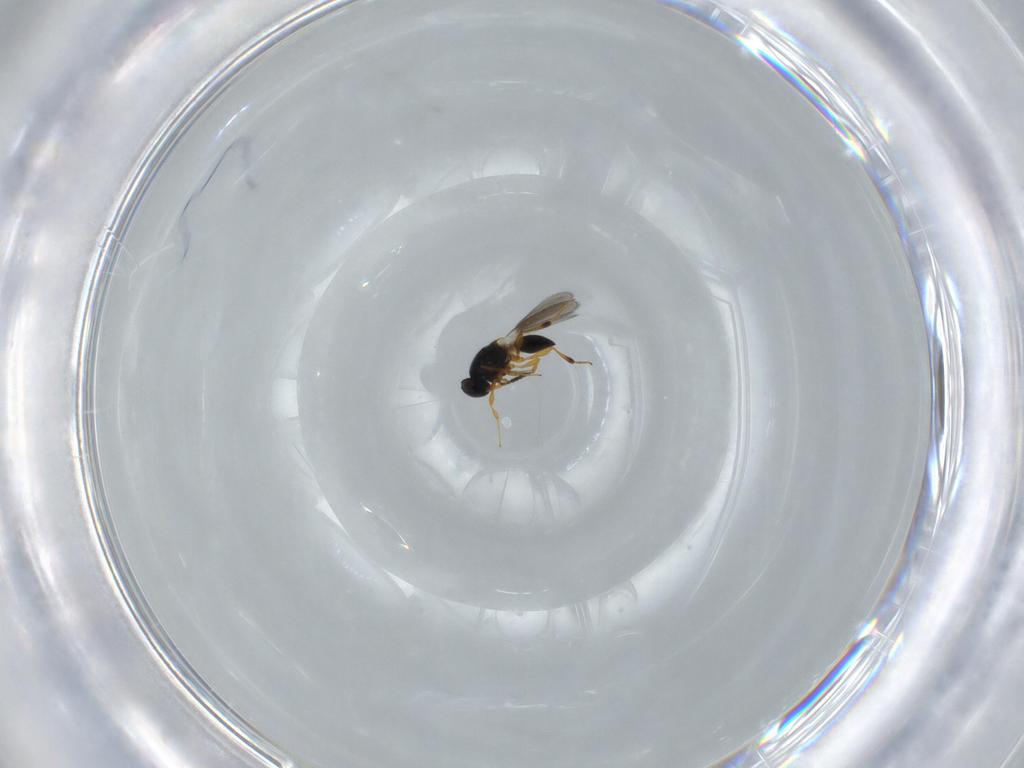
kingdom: Animalia
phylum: Arthropoda
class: Insecta
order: Hymenoptera
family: Platygastridae
